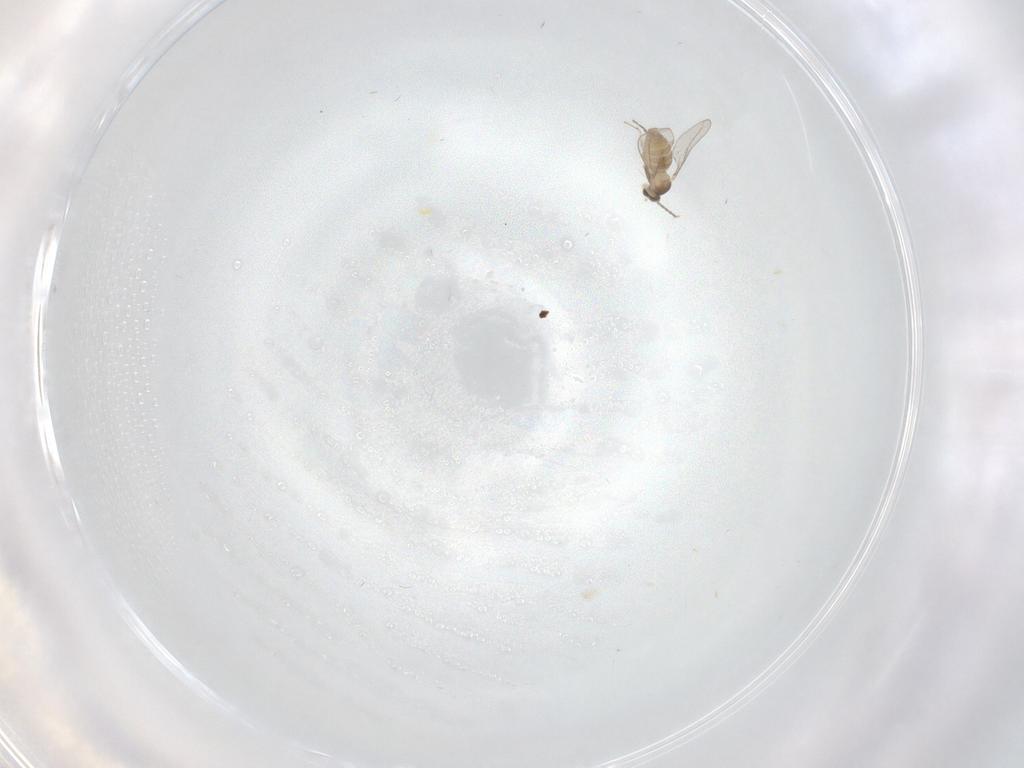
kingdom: Animalia
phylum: Arthropoda
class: Insecta
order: Diptera
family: Cecidomyiidae
